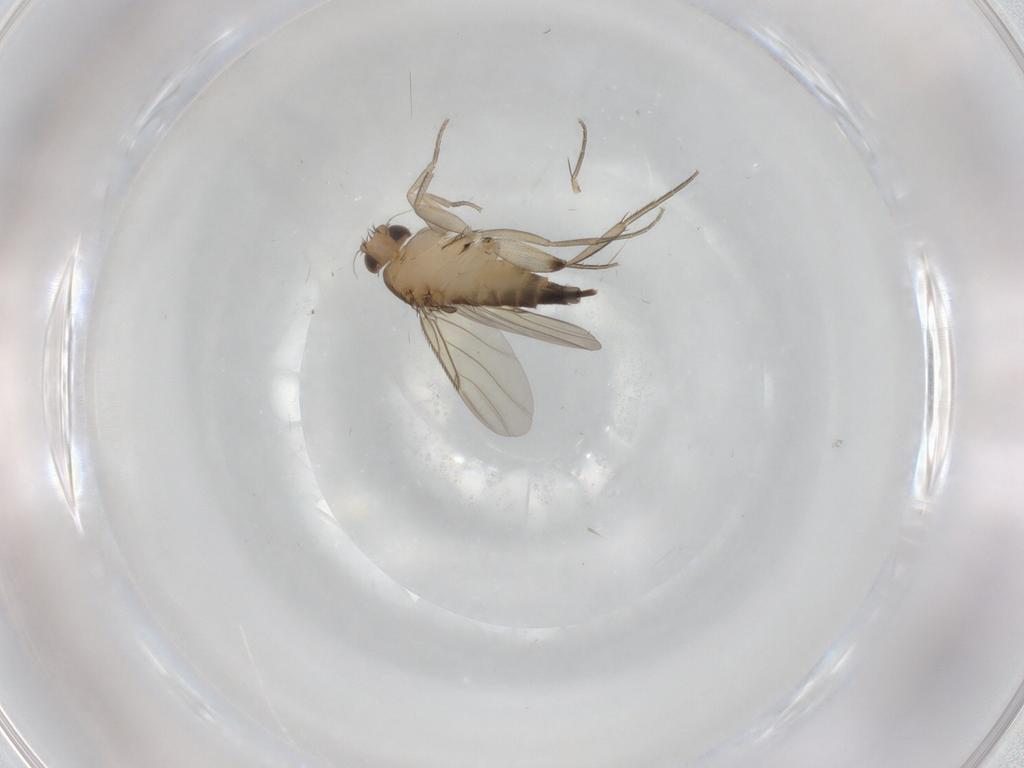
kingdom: Animalia
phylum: Arthropoda
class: Insecta
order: Diptera
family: Phoridae
